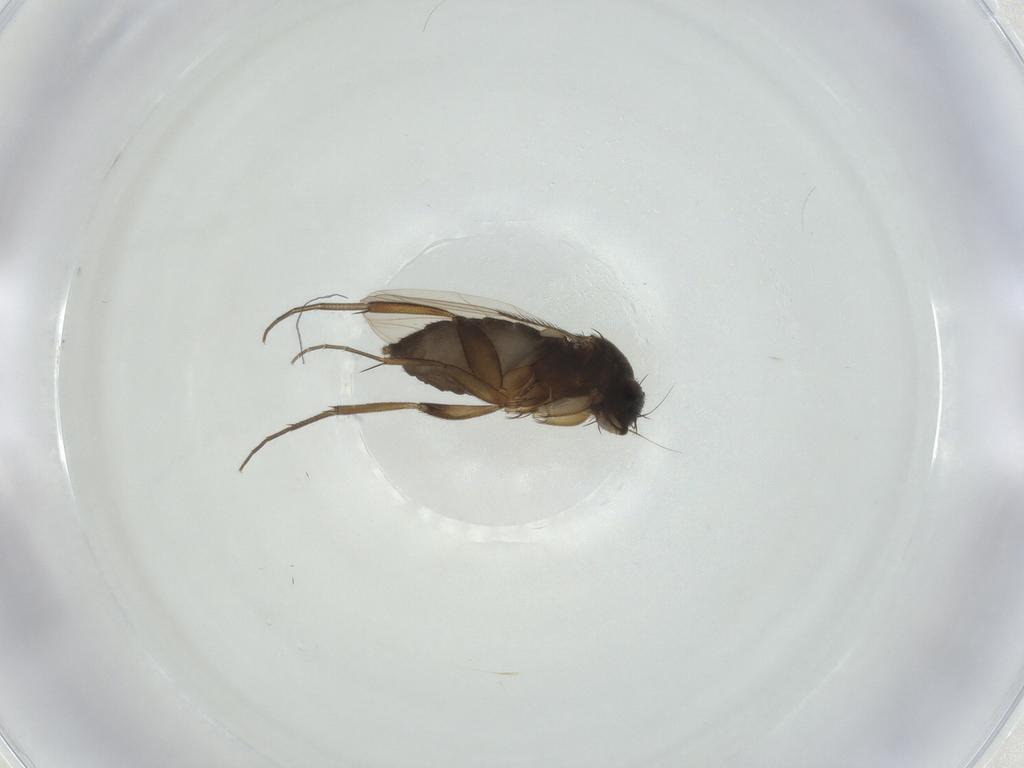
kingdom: Animalia
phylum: Arthropoda
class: Insecta
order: Diptera
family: Phoridae
